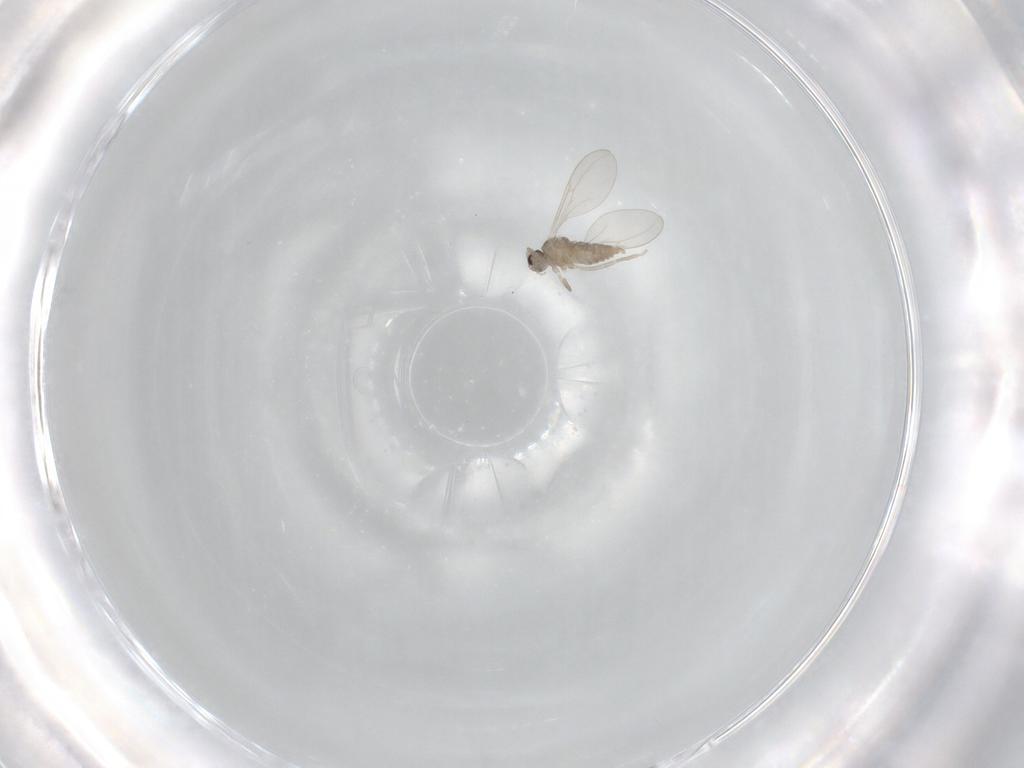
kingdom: Animalia
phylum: Arthropoda
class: Insecta
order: Diptera
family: Cecidomyiidae
